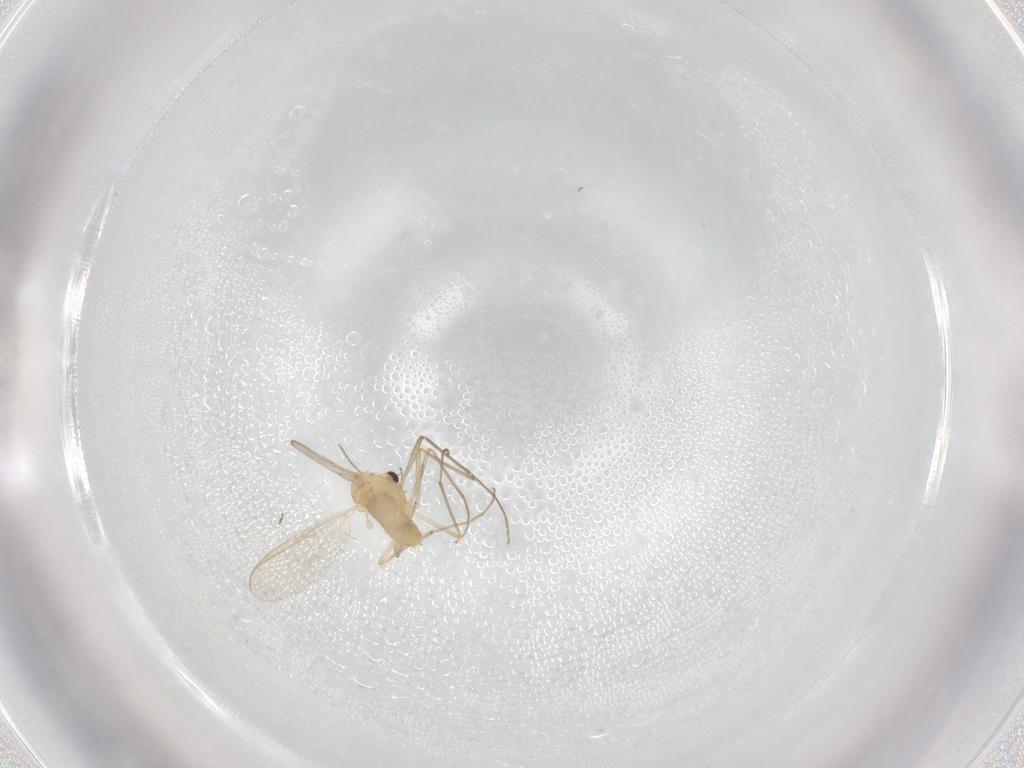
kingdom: Animalia
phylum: Arthropoda
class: Insecta
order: Diptera
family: Chironomidae
